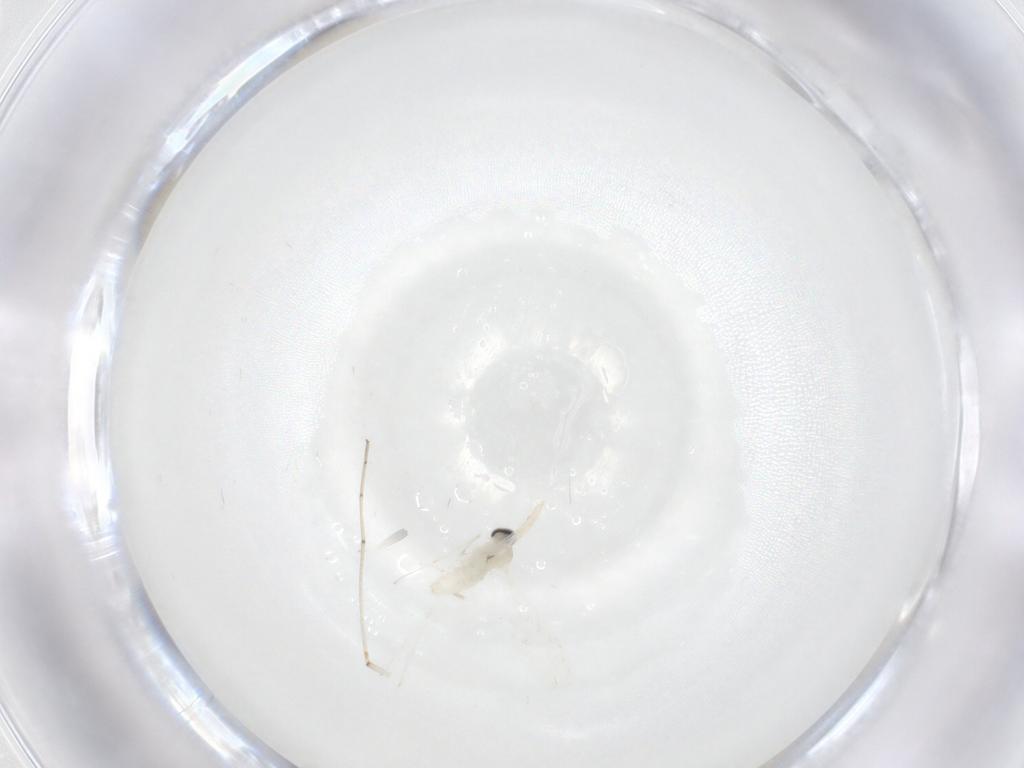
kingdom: Animalia
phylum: Arthropoda
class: Insecta
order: Diptera
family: Cecidomyiidae
